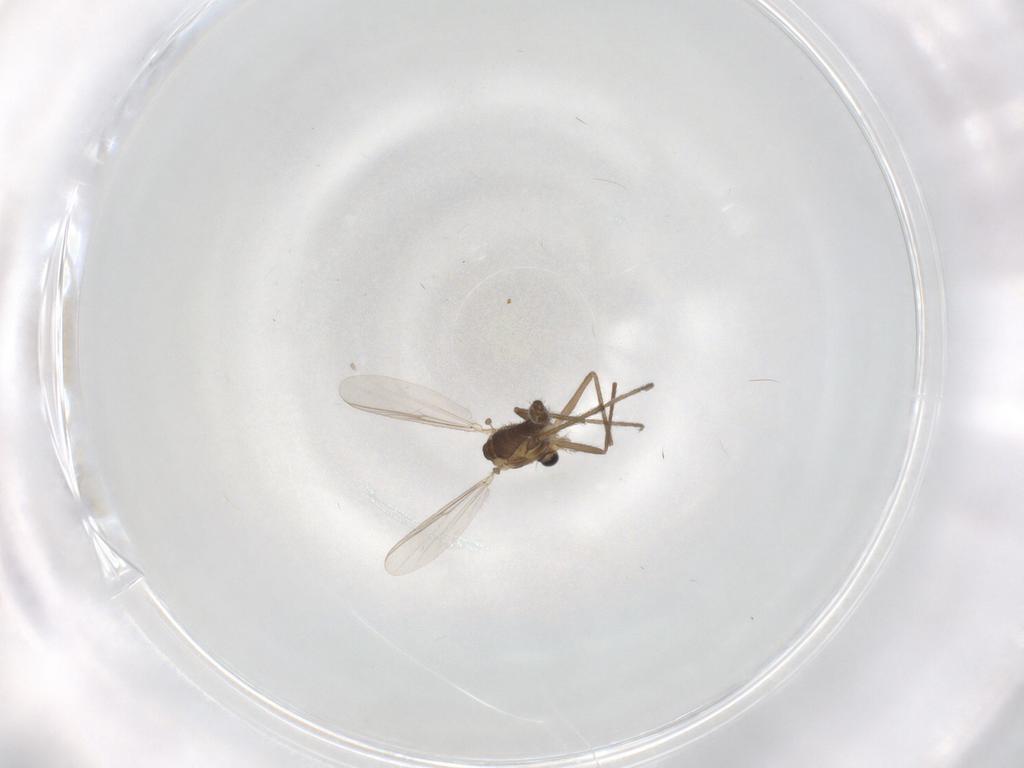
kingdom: Animalia
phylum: Arthropoda
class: Insecta
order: Diptera
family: Chironomidae
